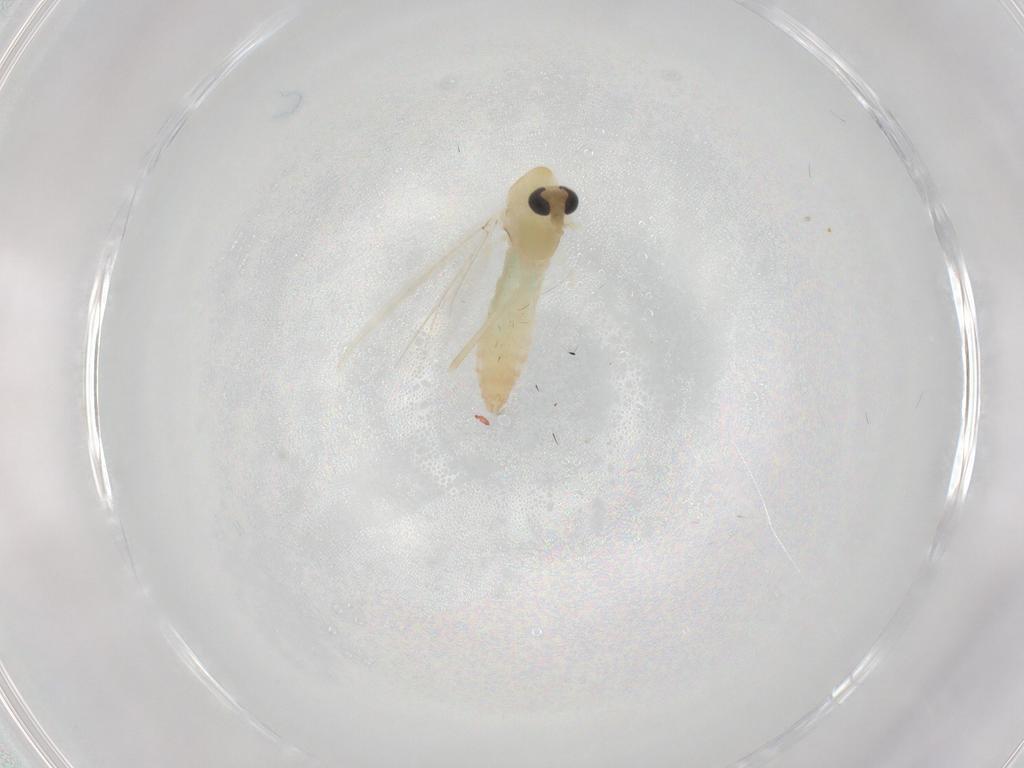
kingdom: Animalia
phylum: Arthropoda
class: Insecta
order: Diptera
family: Chironomidae
